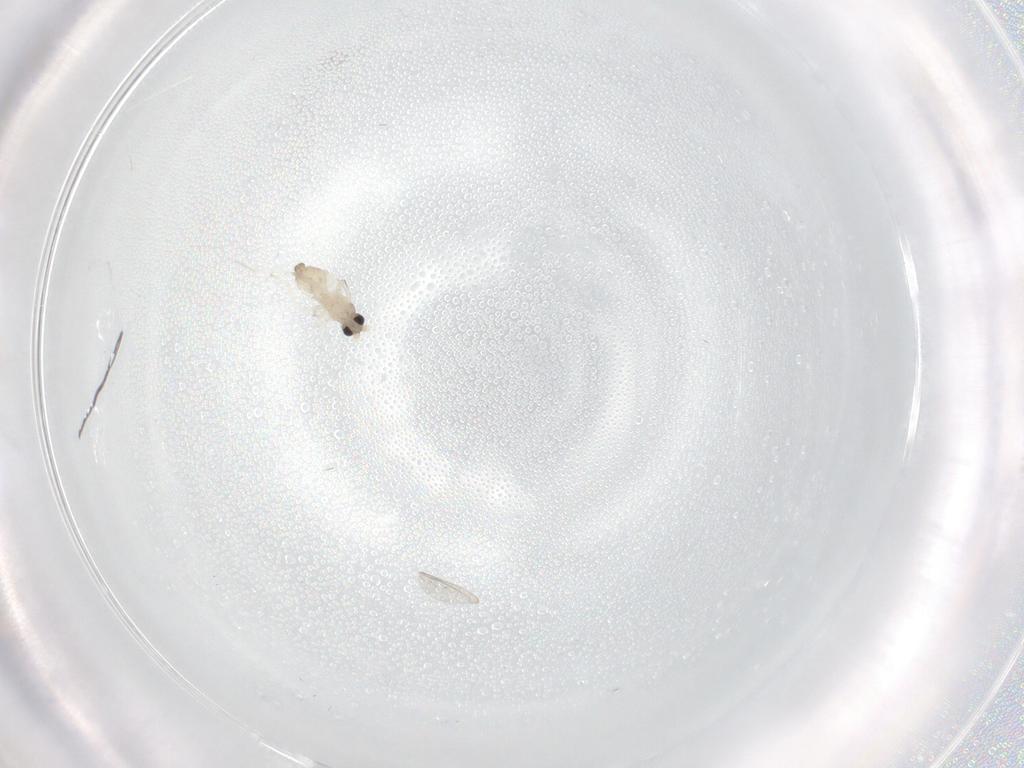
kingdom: Animalia
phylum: Arthropoda
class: Insecta
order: Diptera
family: Cecidomyiidae
